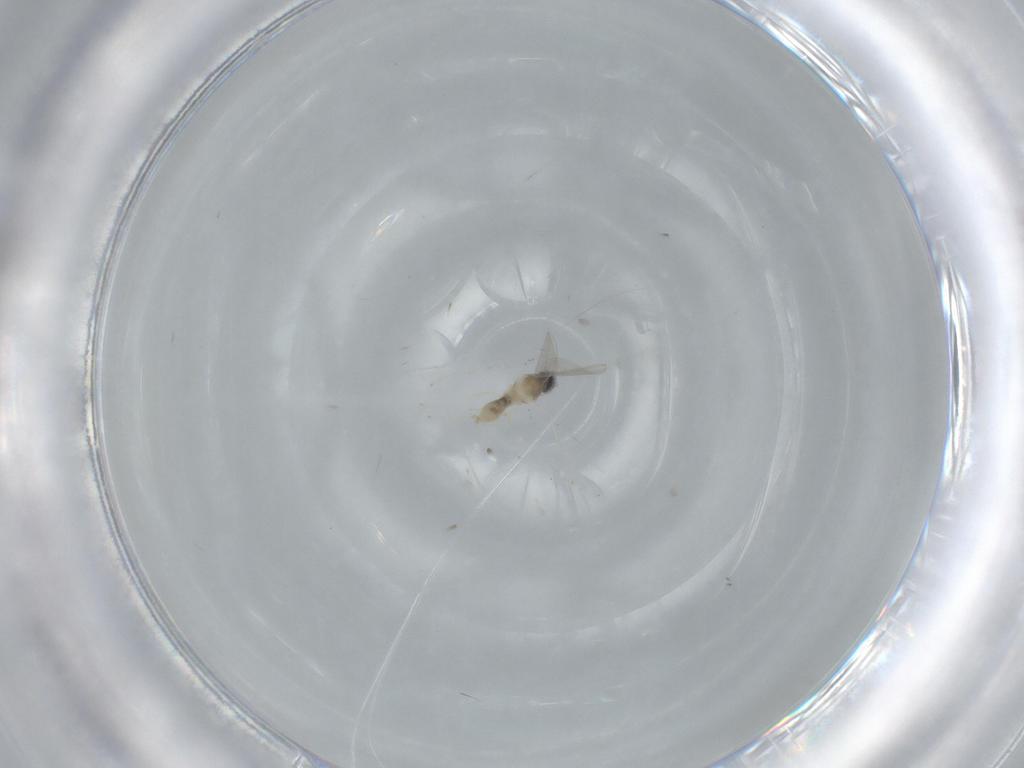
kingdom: Animalia
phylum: Arthropoda
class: Insecta
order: Diptera
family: Cecidomyiidae
